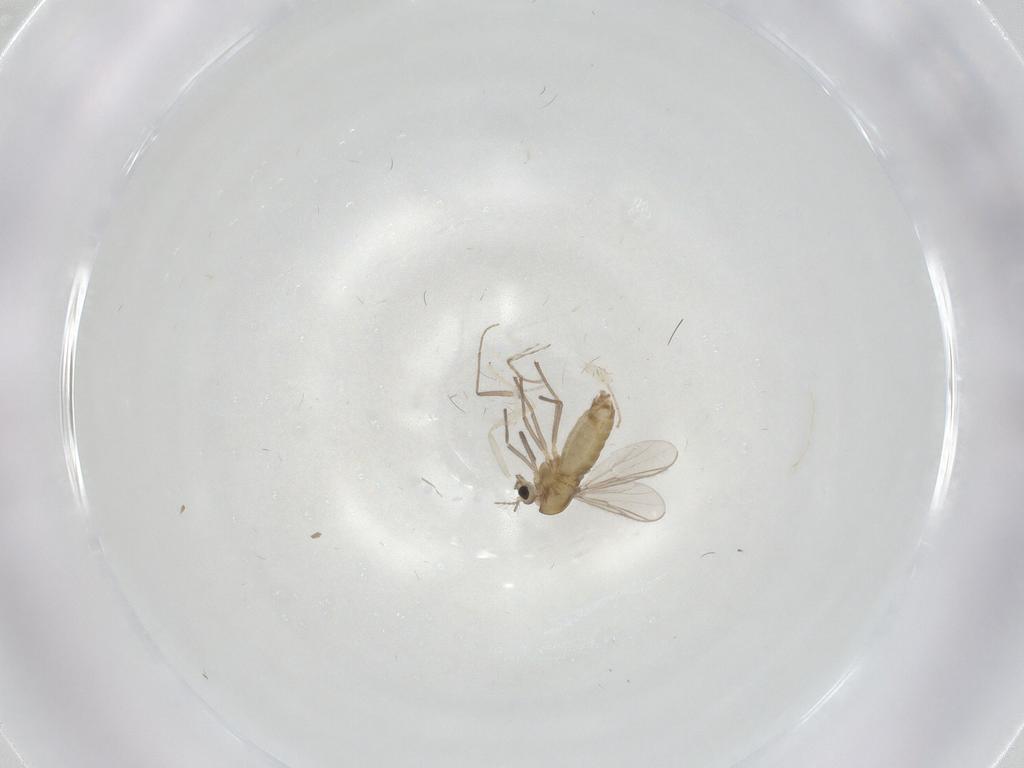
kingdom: Animalia
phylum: Arthropoda
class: Insecta
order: Diptera
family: Chironomidae
